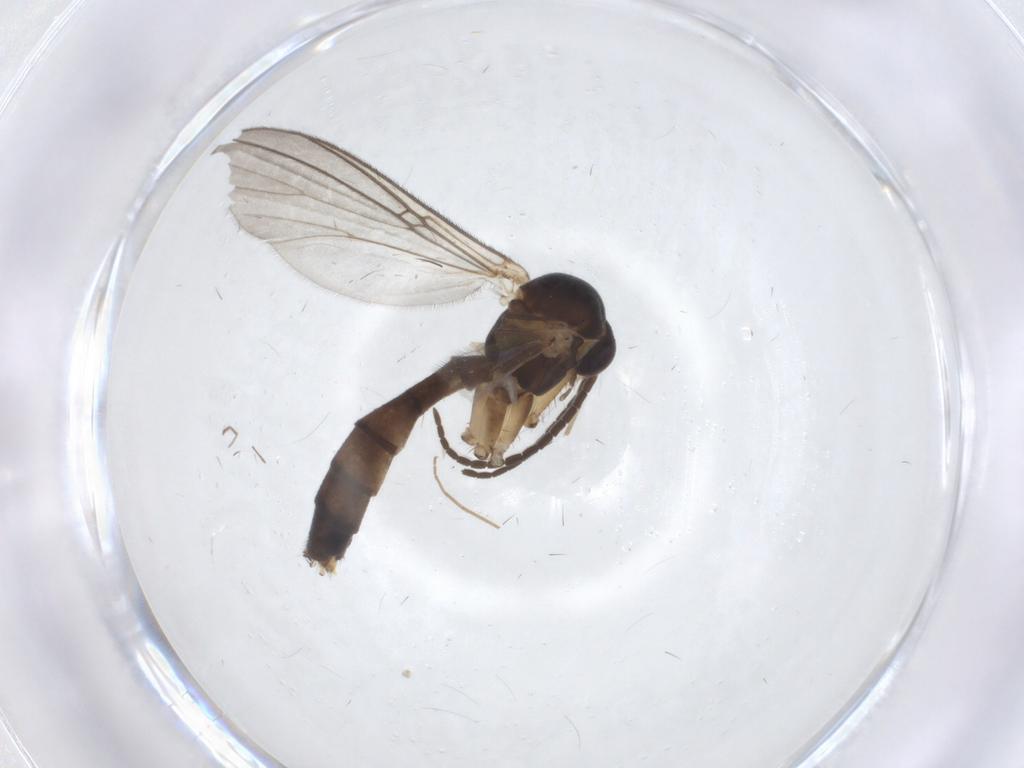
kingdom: Animalia
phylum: Arthropoda
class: Insecta
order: Diptera
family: Mycetophilidae
